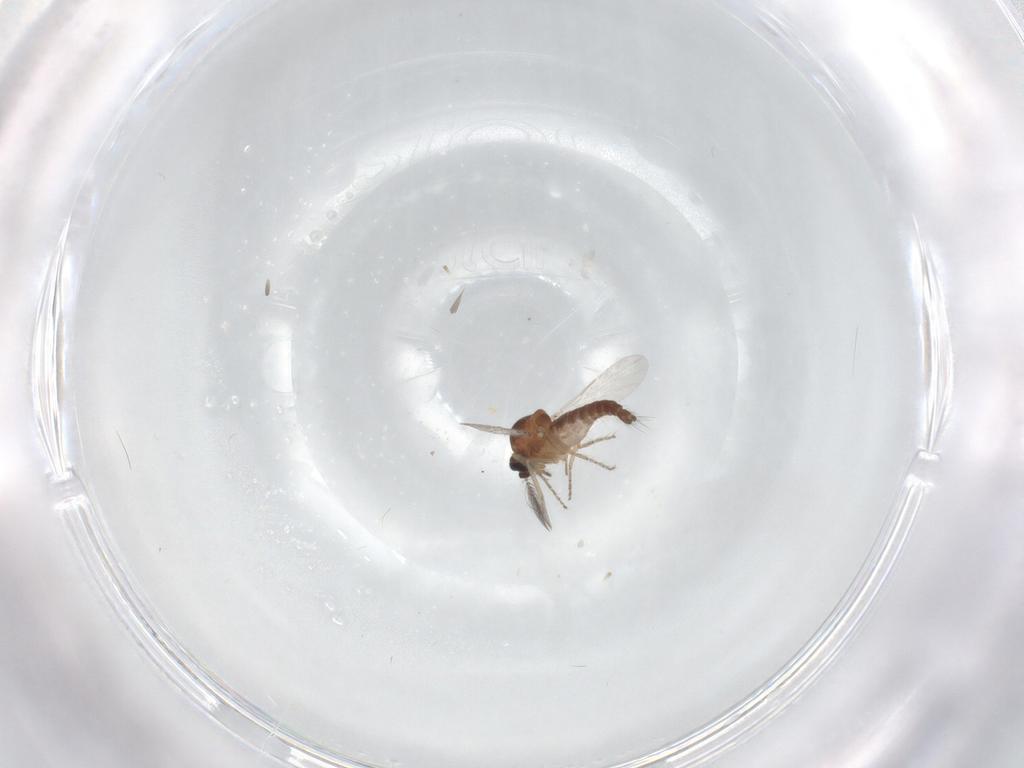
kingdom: Animalia
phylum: Arthropoda
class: Insecta
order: Diptera
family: Ceratopogonidae
